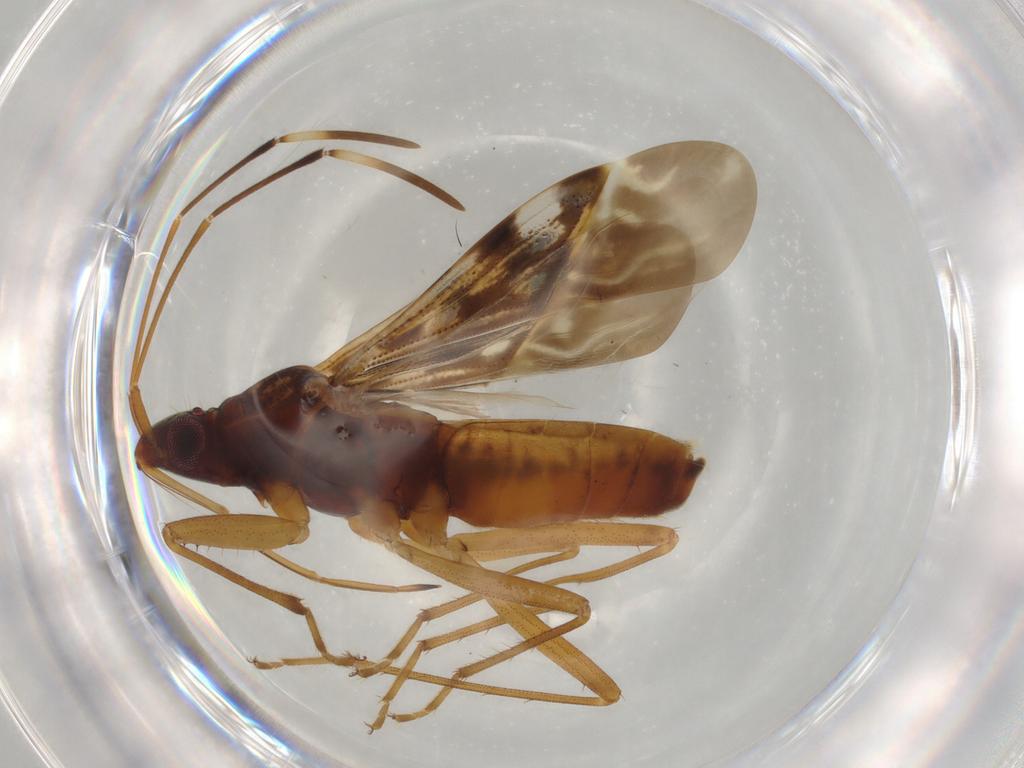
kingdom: Animalia
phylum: Arthropoda
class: Insecta
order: Hemiptera
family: Rhyparochromidae
